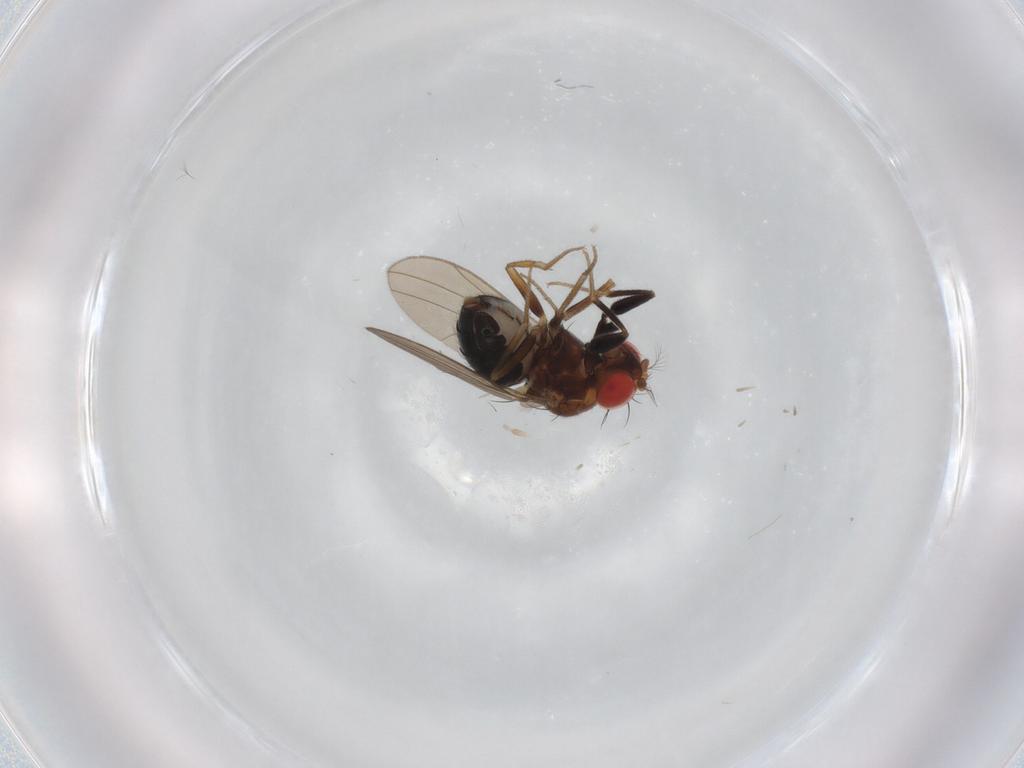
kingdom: Animalia
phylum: Arthropoda
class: Insecta
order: Diptera
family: Drosophilidae
